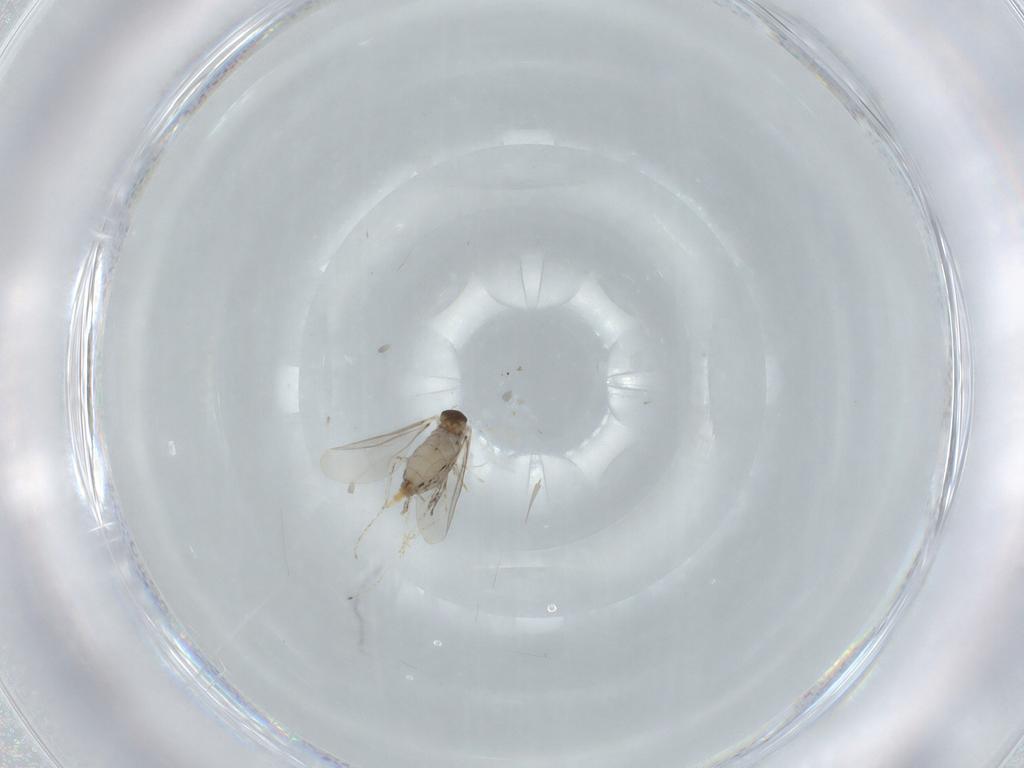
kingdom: Animalia
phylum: Arthropoda
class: Insecta
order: Diptera
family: Cecidomyiidae
